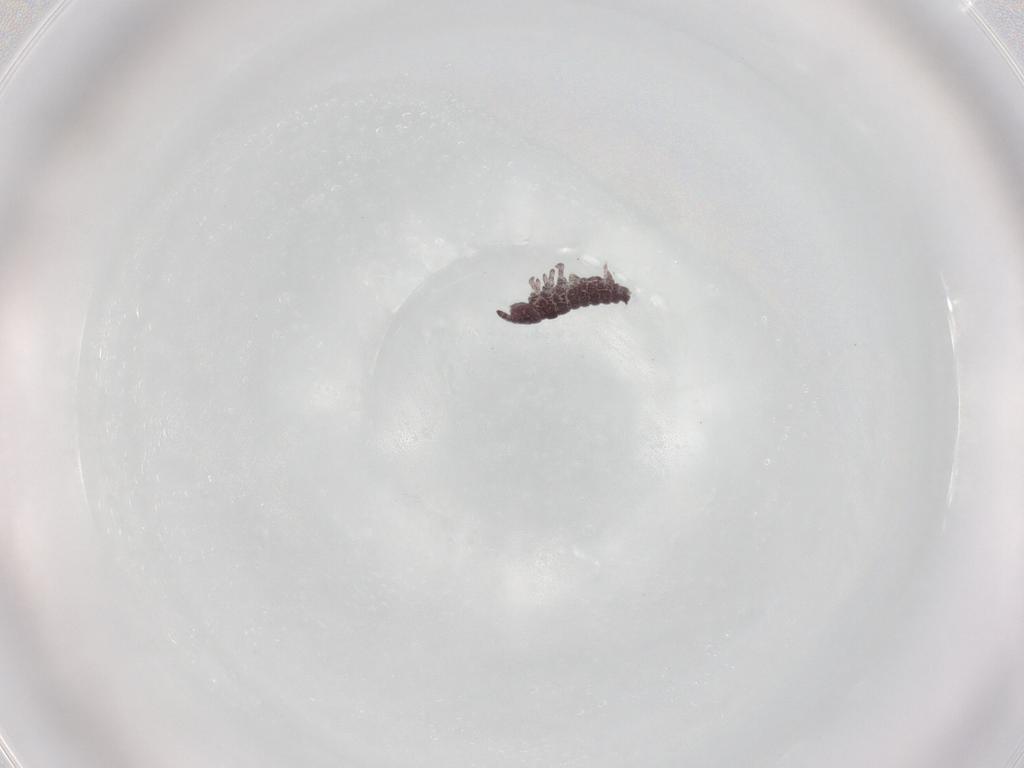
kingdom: Animalia
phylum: Arthropoda
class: Collembola
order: Poduromorpha
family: Hypogastruridae
